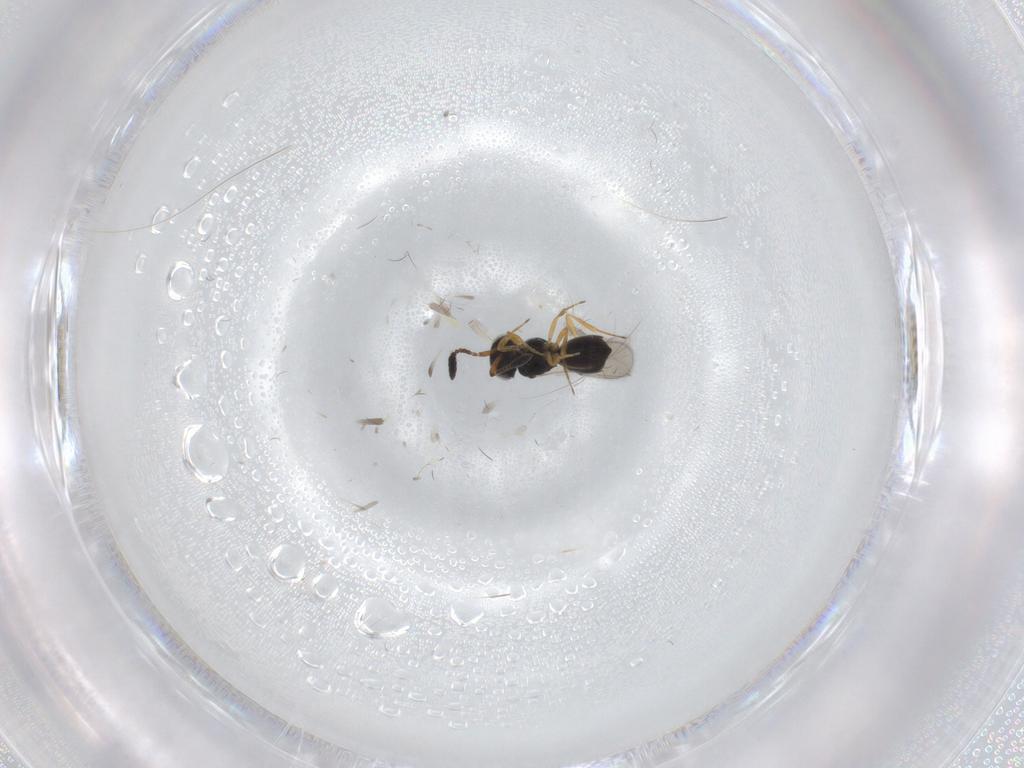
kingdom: Animalia
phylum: Arthropoda
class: Insecta
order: Hymenoptera
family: Scelionidae
